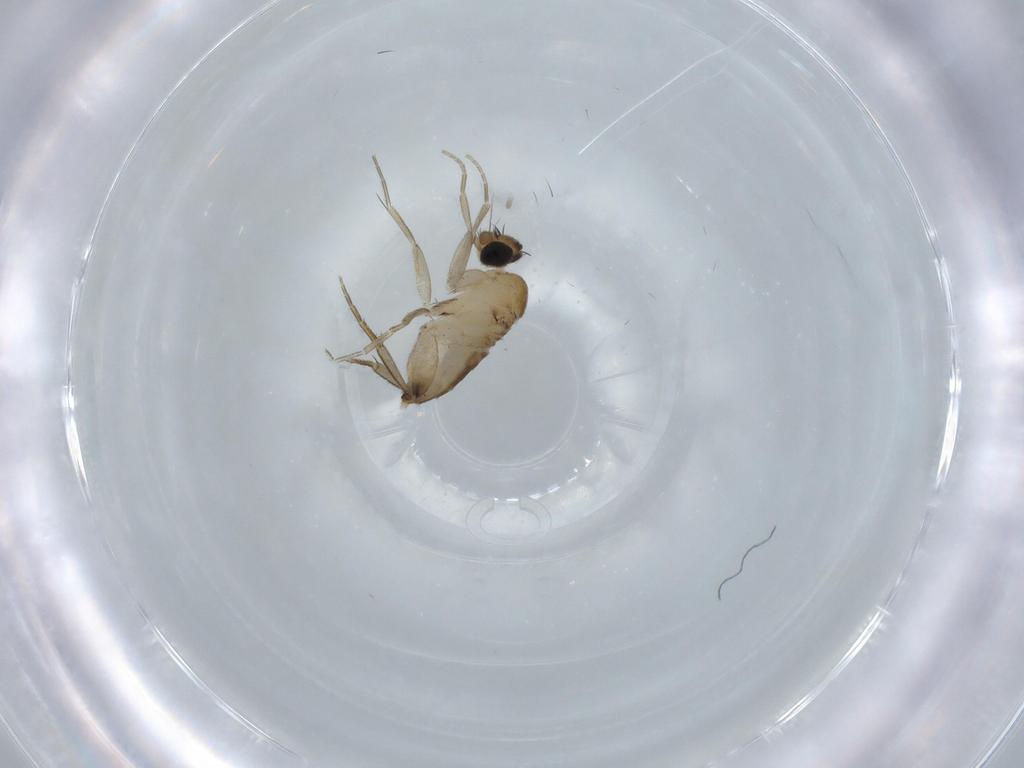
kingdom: Animalia
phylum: Arthropoda
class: Insecta
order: Diptera
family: Phoridae
